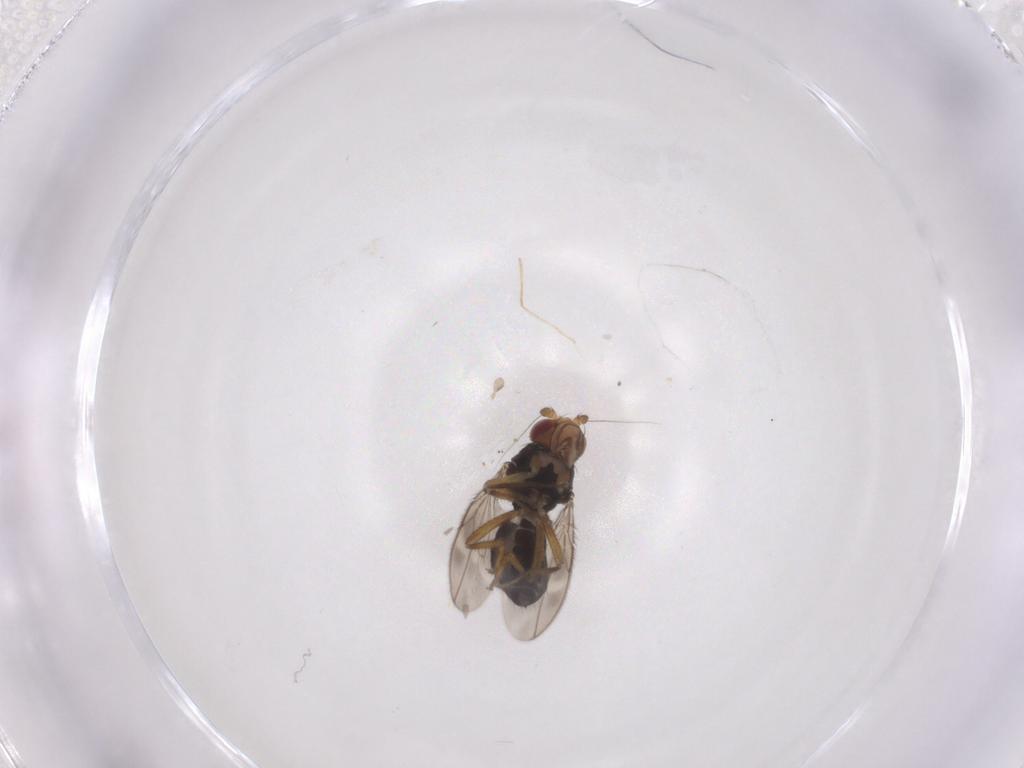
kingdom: Animalia
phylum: Arthropoda
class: Insecta
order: Diptera
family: Sphaeroceridae
